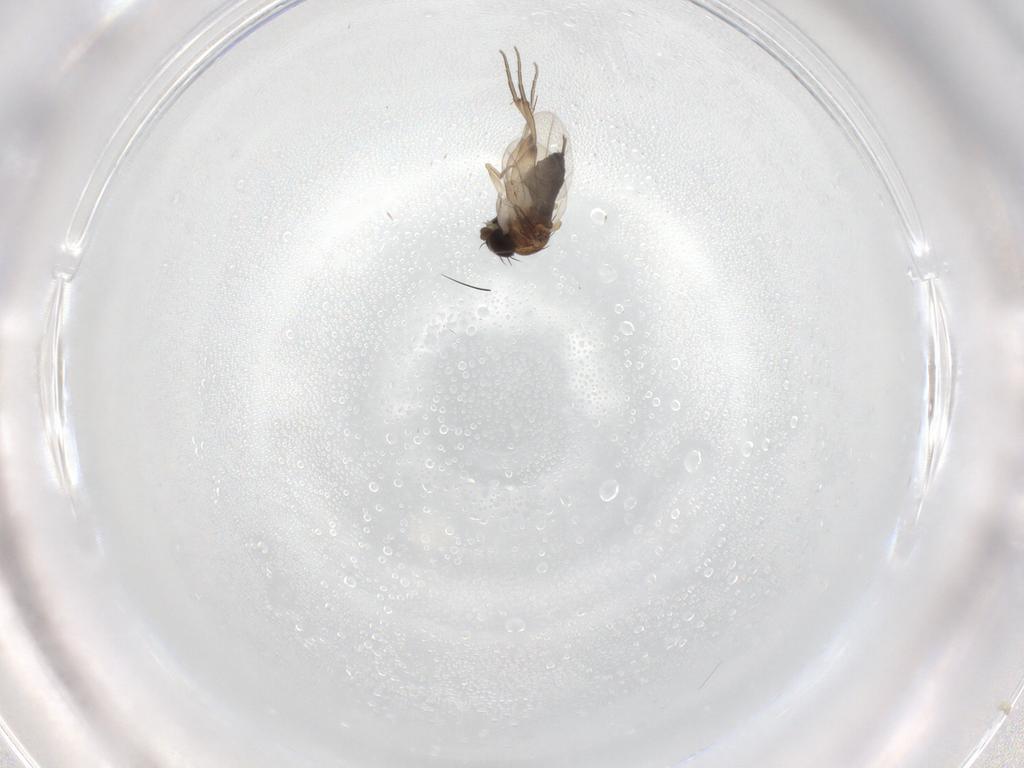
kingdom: Animalia
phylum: Arthropoda
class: Insecta
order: Diptera
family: Phoridae
